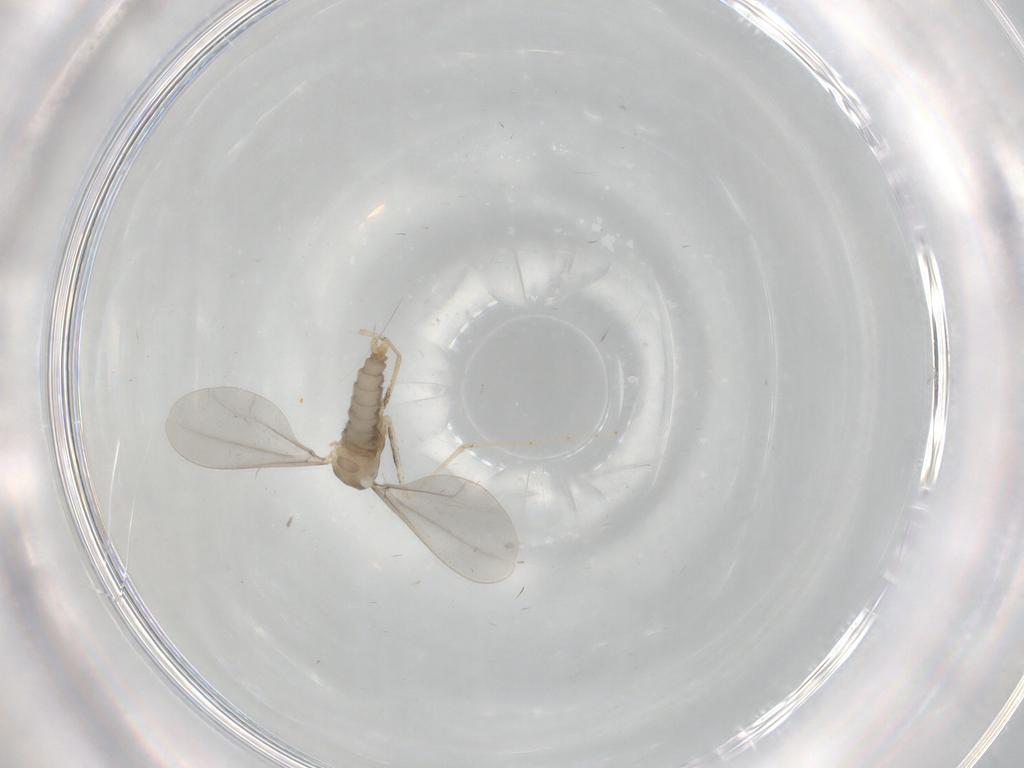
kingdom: Animalia
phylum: Arthropoda
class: Insecta
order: Diptera
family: Cecidomyiidae
